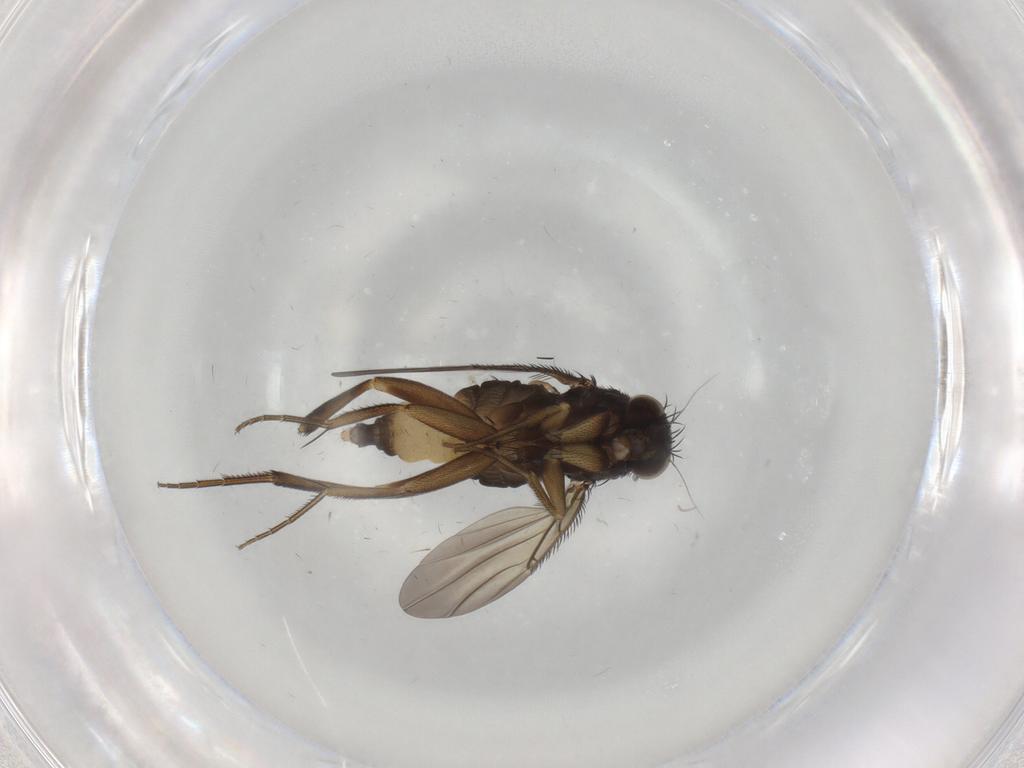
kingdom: Animalia
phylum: Arthropoda
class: Insecta
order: Diptera
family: Phoridae
